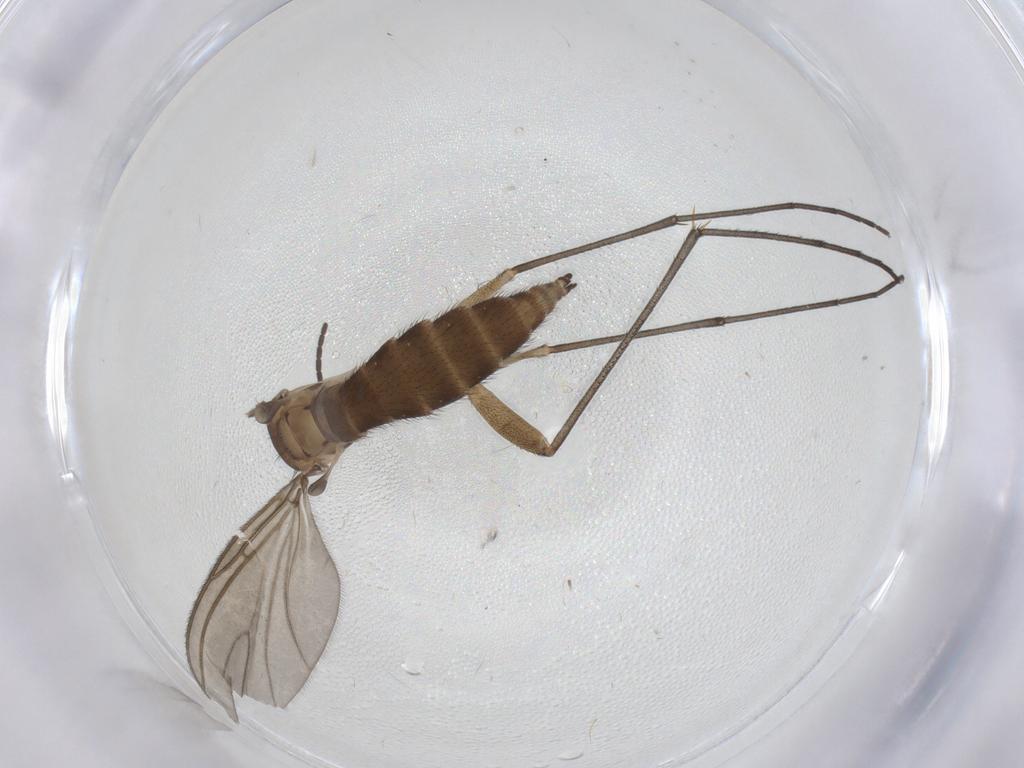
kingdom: Animalia
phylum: Arthropoda
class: Insecta
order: Diptera
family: Sciaridae
